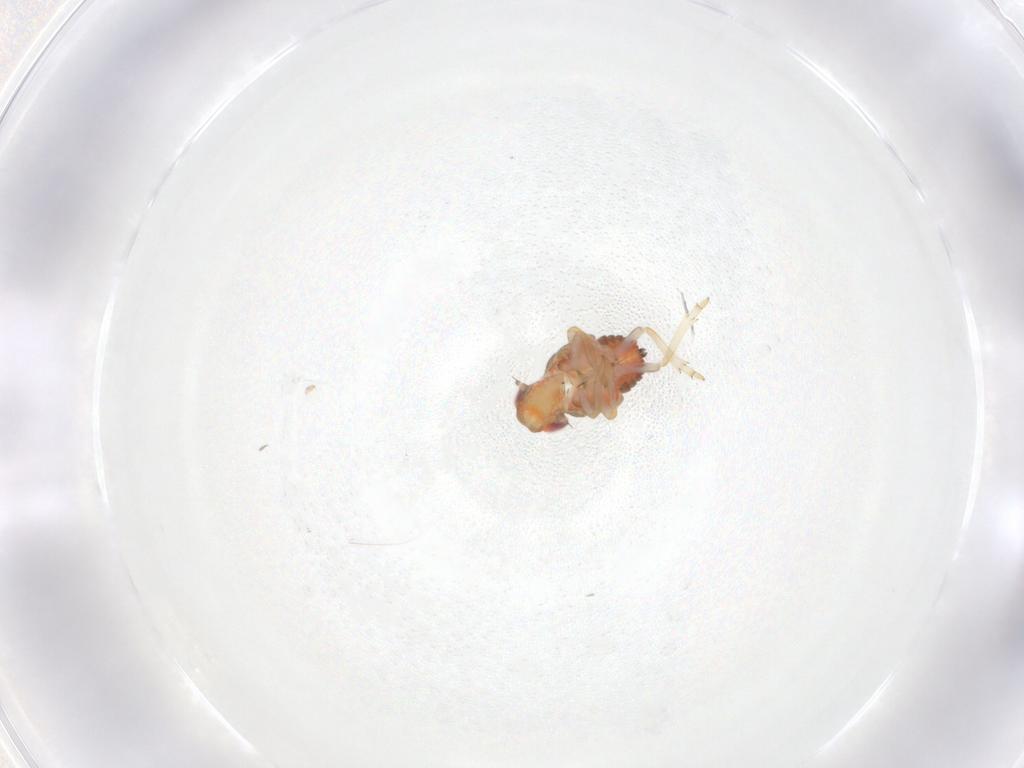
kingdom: Animalia
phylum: Arthropoda
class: Insecta
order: Hemiptera
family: Issidae
